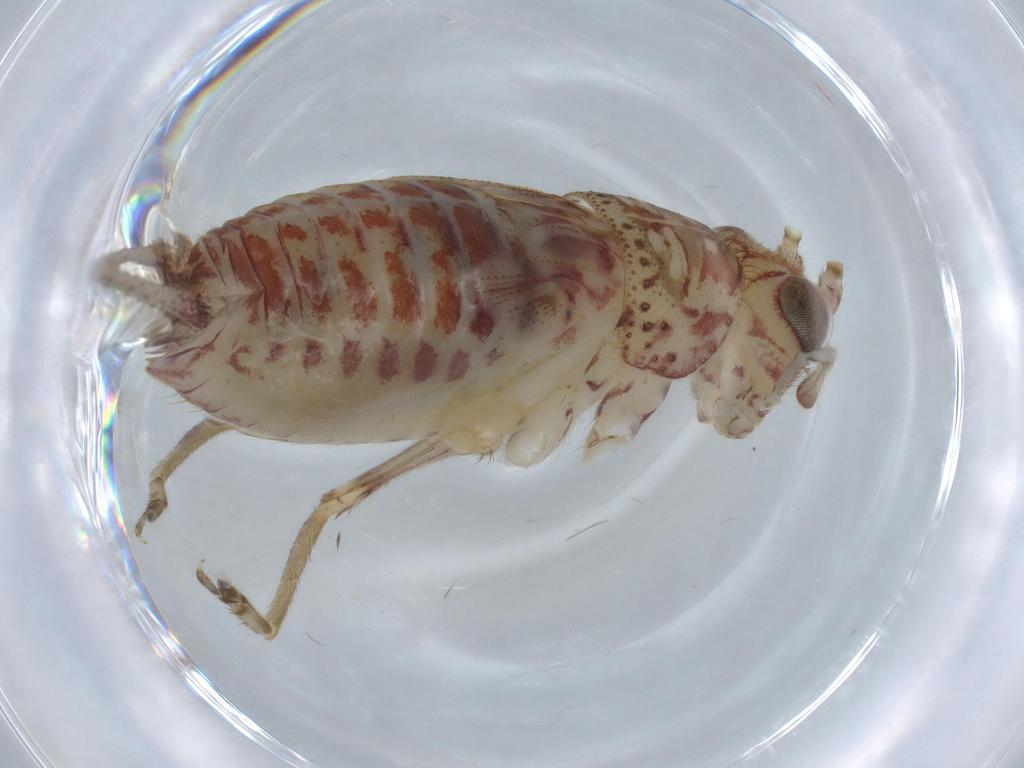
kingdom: Animalia
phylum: Arthropoda
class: Insecta
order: Orthoptera
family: Trigonidiidae
